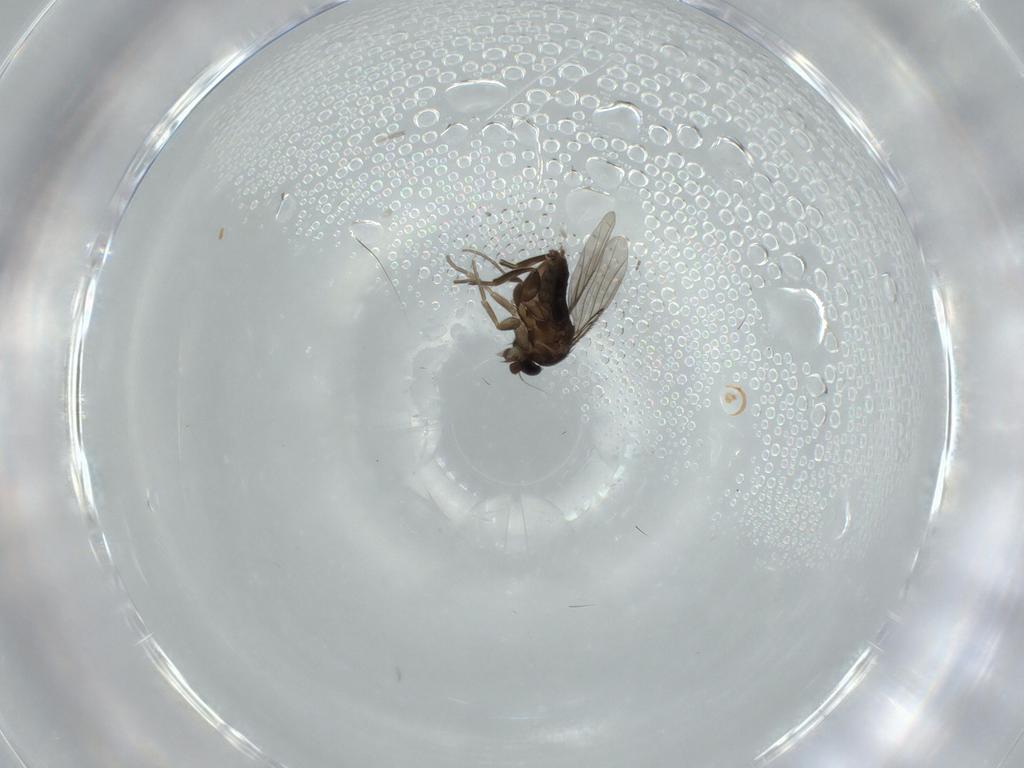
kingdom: Animalia
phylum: Arthropoda
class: Insecta
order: Diptera
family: Cecidomyiidae
